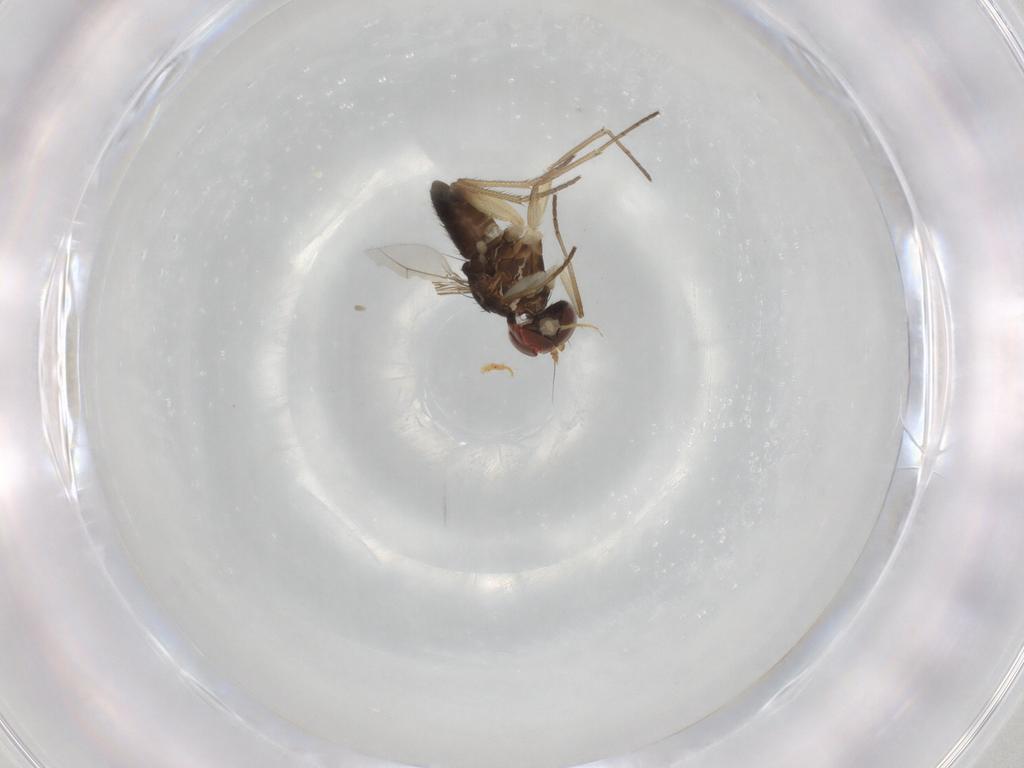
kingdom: Animalia
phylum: Arthropoda
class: Insecta
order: Diptera
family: Dolichopodidae
